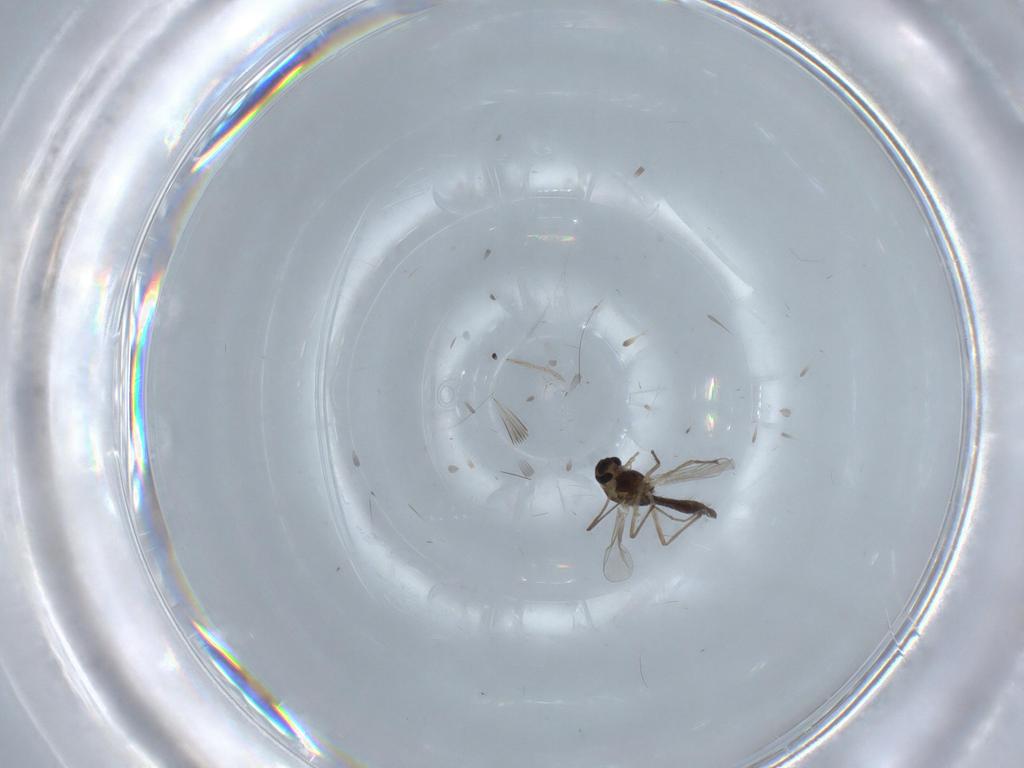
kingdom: Animalia
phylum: Arthropoda
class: Insecta
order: Diptera
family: Chironomidae
